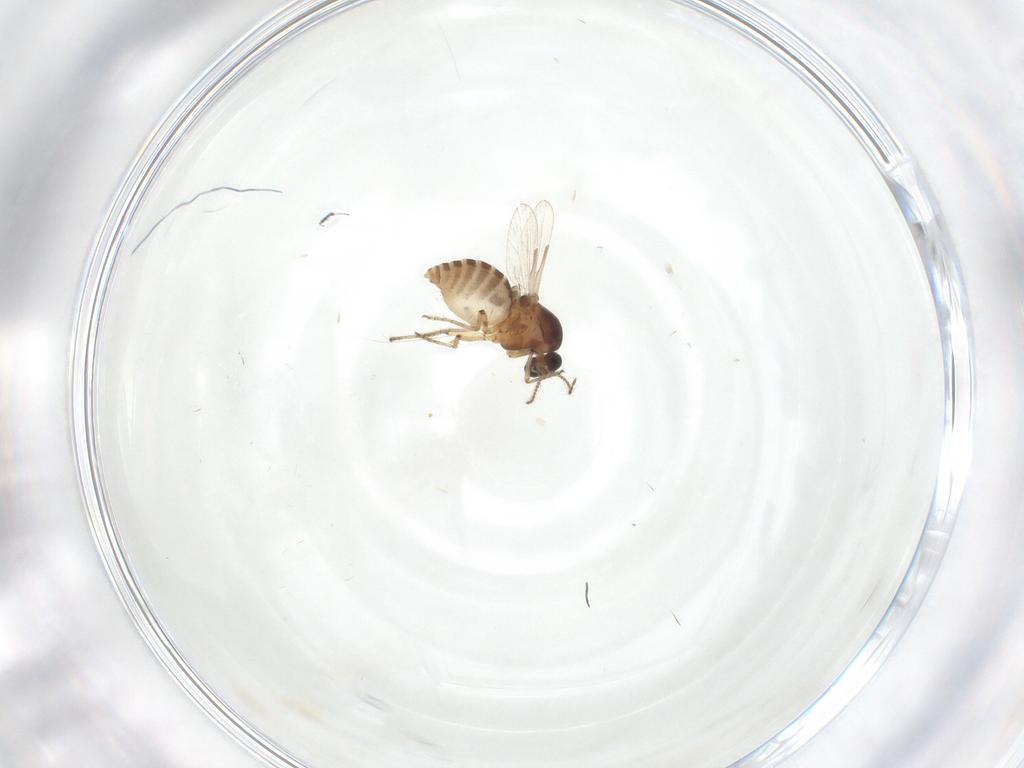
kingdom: Animalia
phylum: Arthropoda
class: Insecta
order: Diptera
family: Ceratopogonidae
